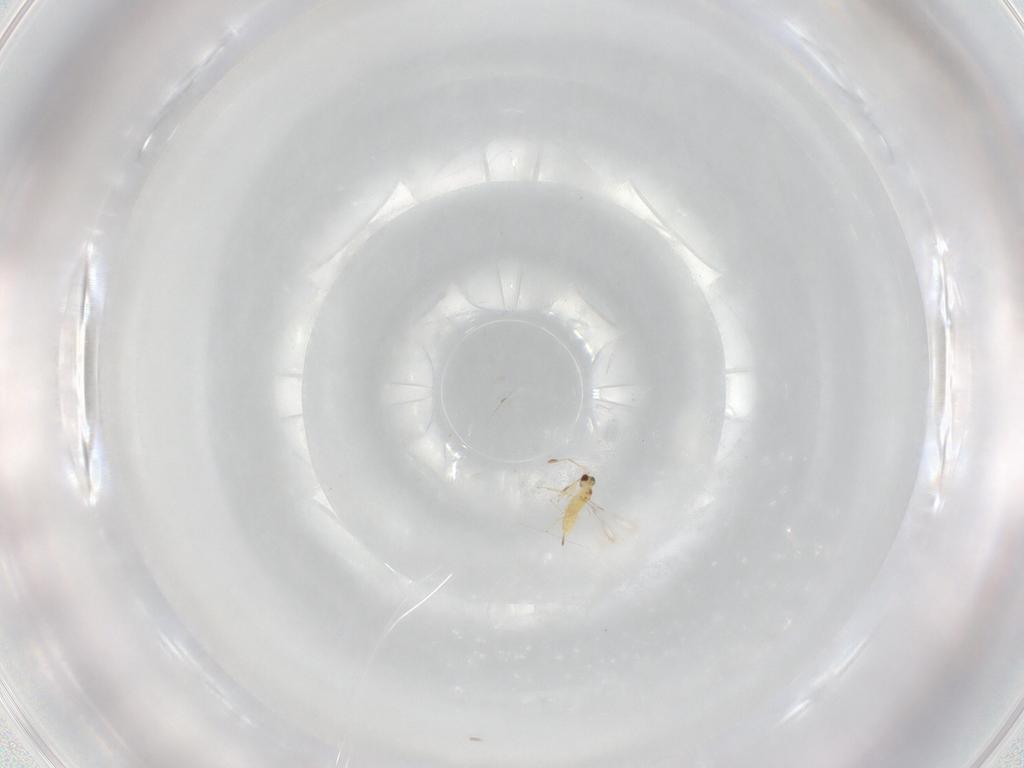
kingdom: Animalia
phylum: Arthropoda
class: Insecta
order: Hymenoptera
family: Mymaridae
